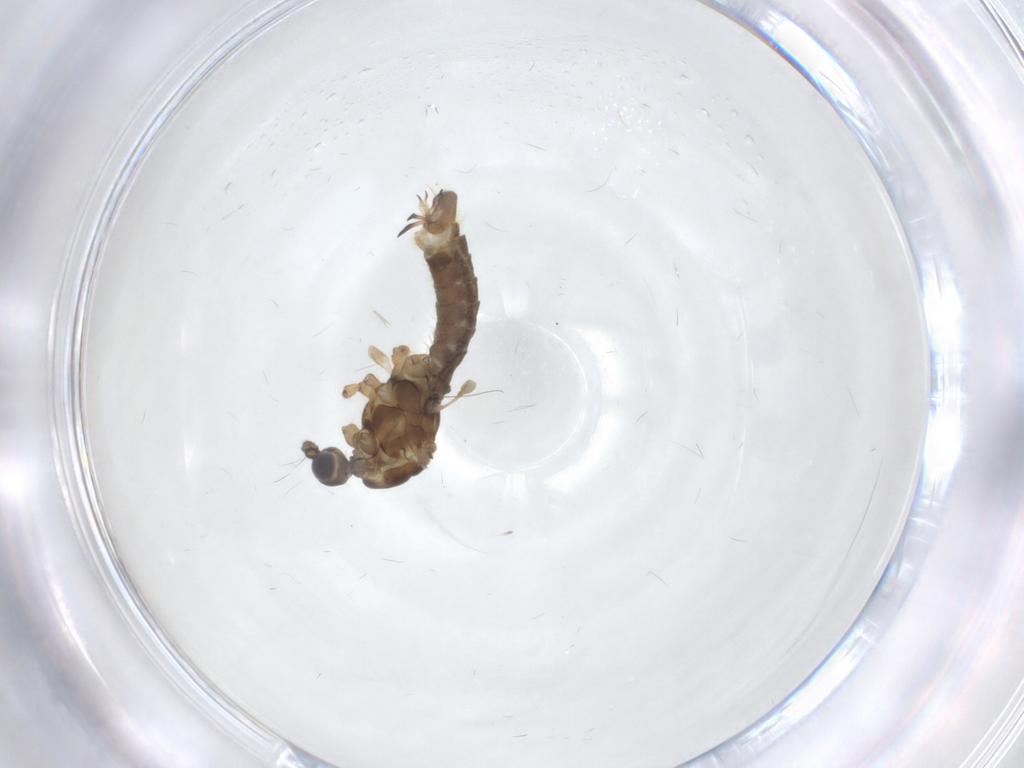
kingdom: Animalia
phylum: Arthropoda
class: Insecta
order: Diptera
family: Limoniidae
